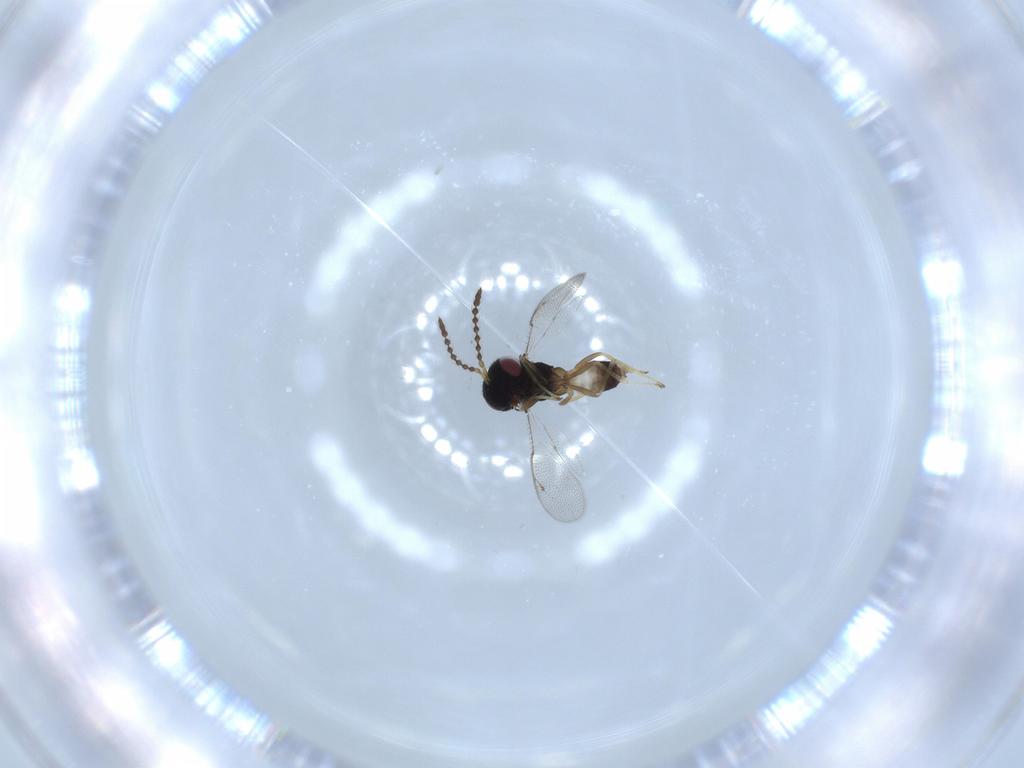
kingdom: Animalia
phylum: Arthropoda
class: Insecta
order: Hymenoptera
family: Pteromalidae
